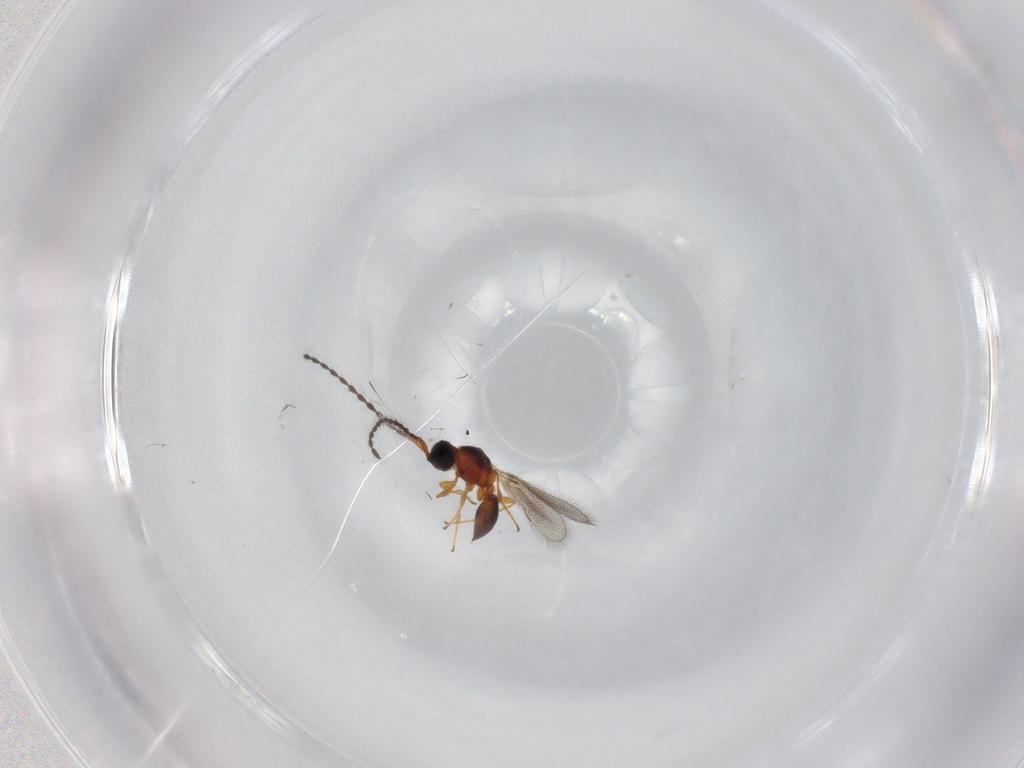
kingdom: Animalia
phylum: Arthropoda
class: Insecta
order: Hymenoptera
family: Diapriidae
